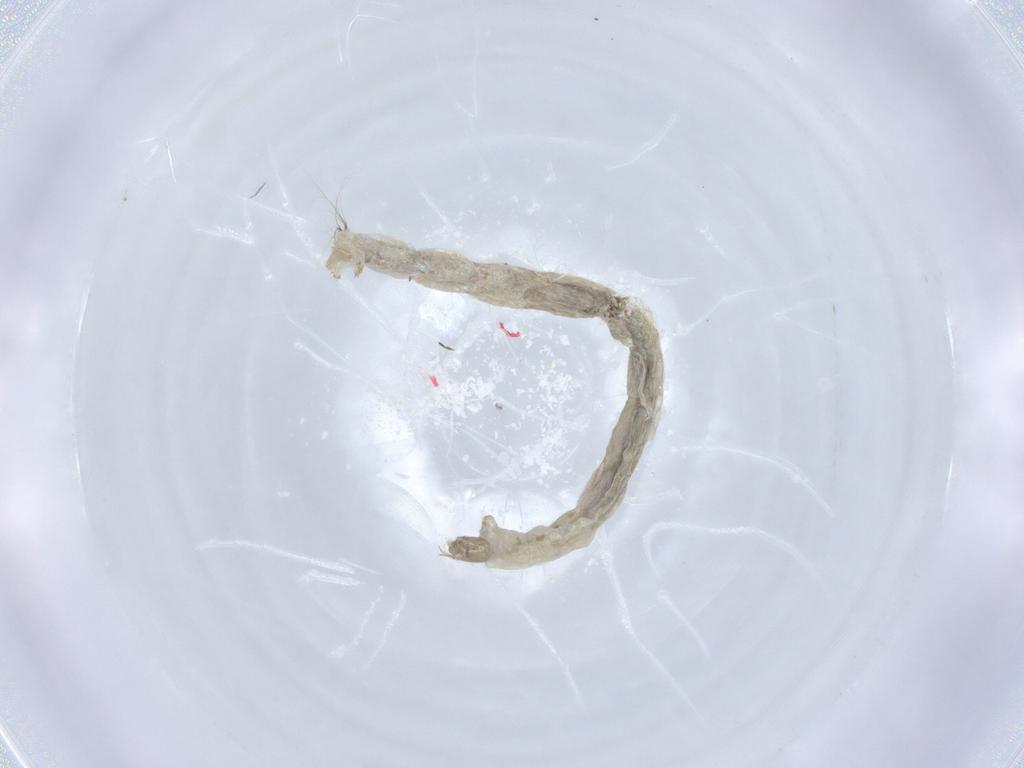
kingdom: Animalia
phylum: Arthropoda
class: Insecta
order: Diptera
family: Chironomidae
